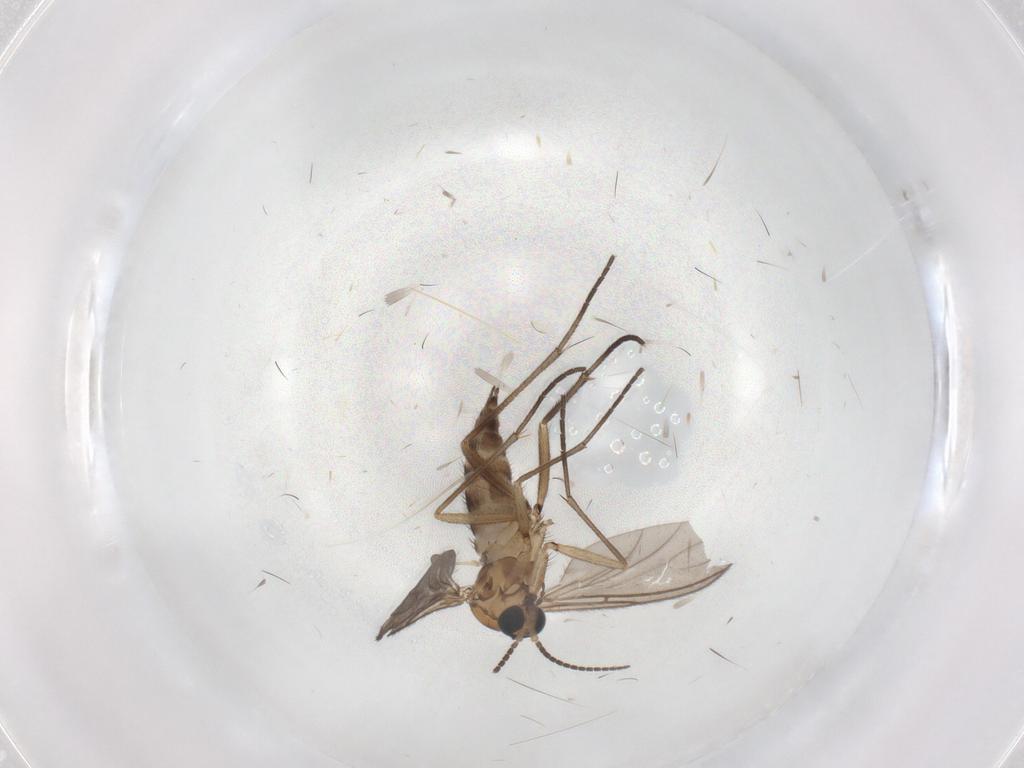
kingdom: Animalia
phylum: Arthropoda
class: Insecta
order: Diptera
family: Sciaridae
